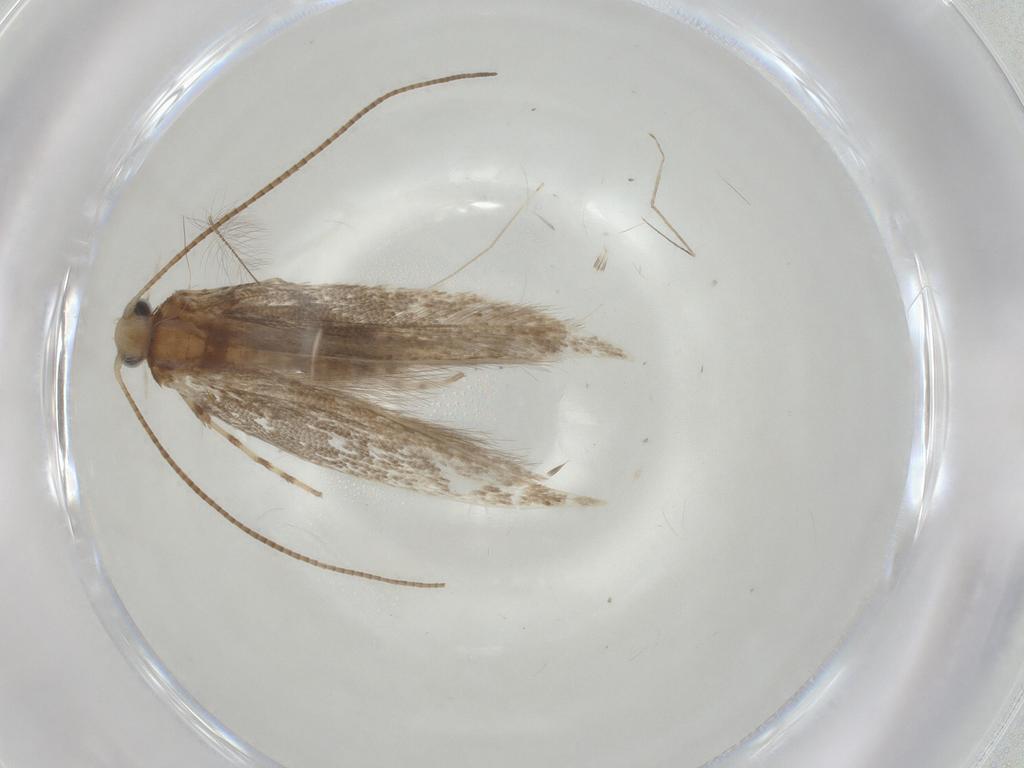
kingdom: Animalia
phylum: Arthropoda
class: Insecta
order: Lepidoptera
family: Gracillariidae
